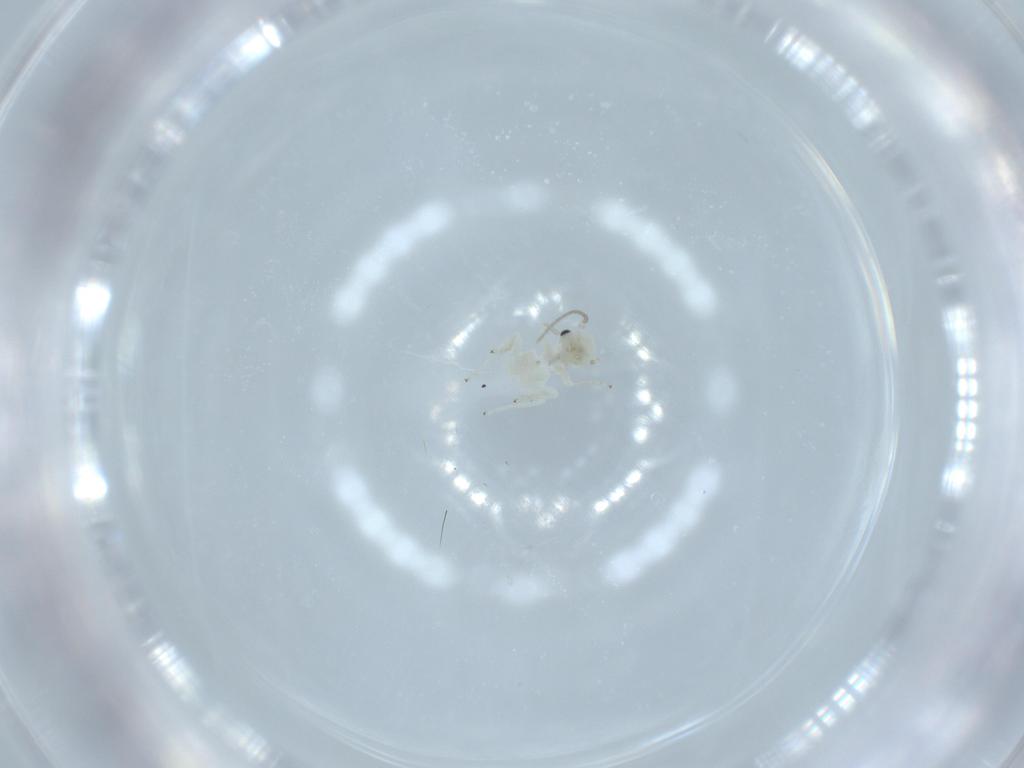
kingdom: Animalia
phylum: Arthropoda
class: Insecta
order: Psocodea
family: Caeciliusidae
